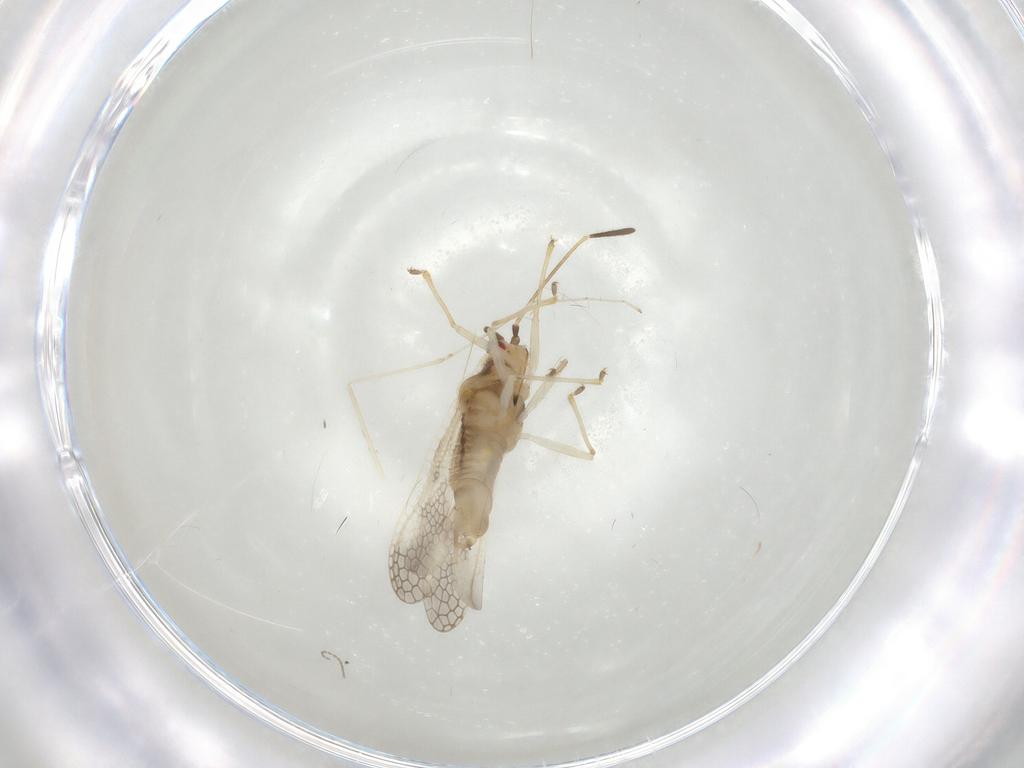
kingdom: Animalia
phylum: Arthropoda
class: Insecta
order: Hemiptera
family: Tingidae
